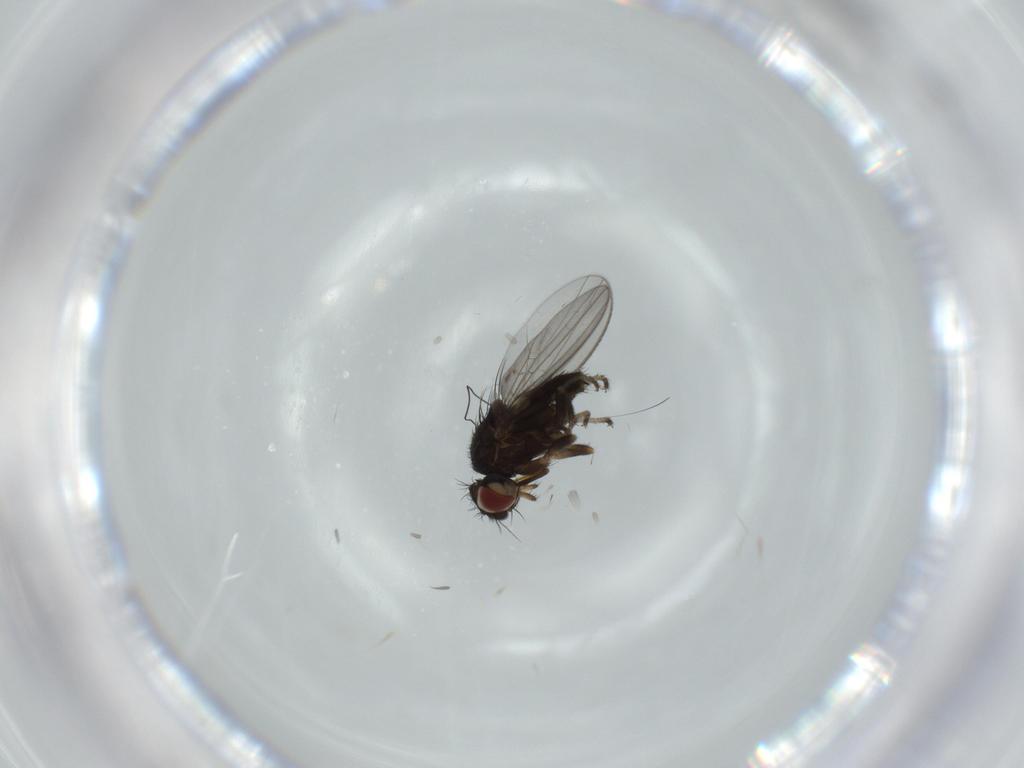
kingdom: Animalia
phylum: Arthropoda
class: Insecta
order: Diptera
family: Milichiidae
